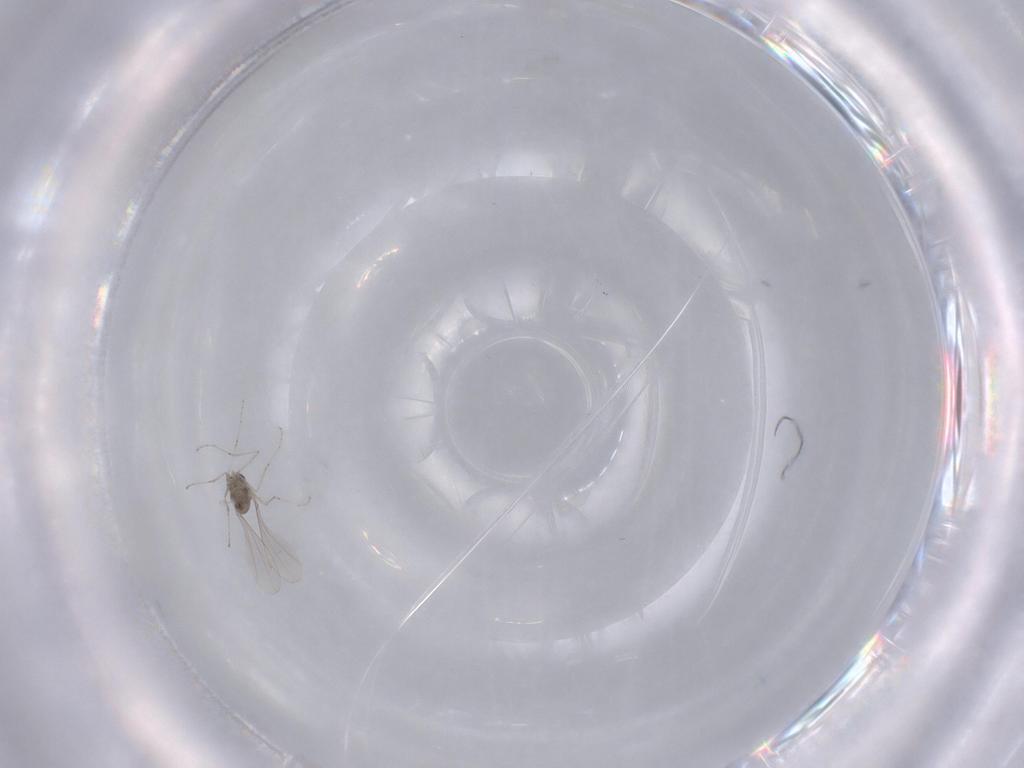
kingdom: Animalia
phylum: Arthropoda
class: Insecta
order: Diptera
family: Cecidomyiidae
